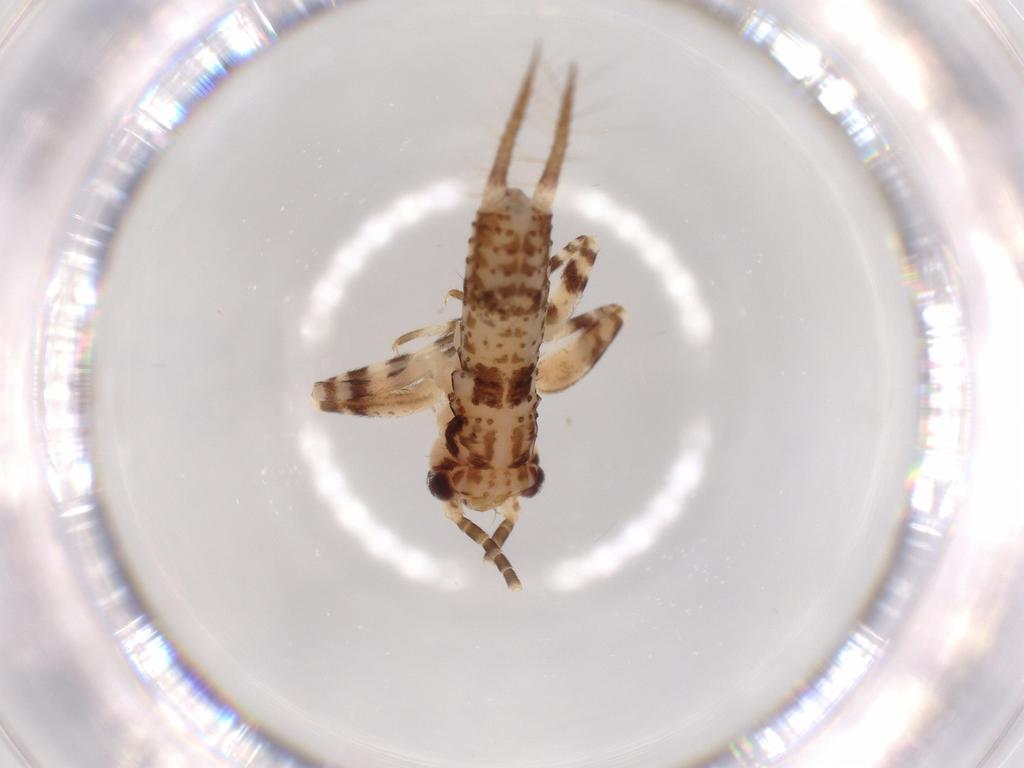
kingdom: Animalia
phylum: Arthropoda
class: Insecta
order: Orthoptera
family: Gryllidae
